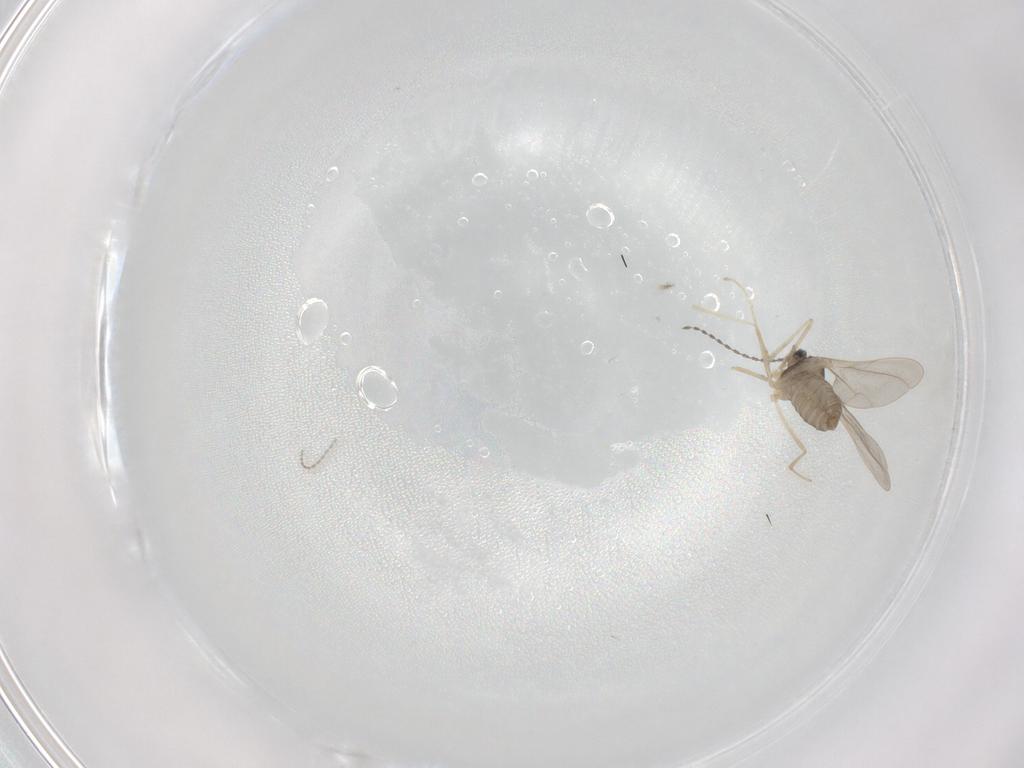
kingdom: Animalia
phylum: Arthropoda
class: Insecta
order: Diptera
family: Cecidomyiidae
